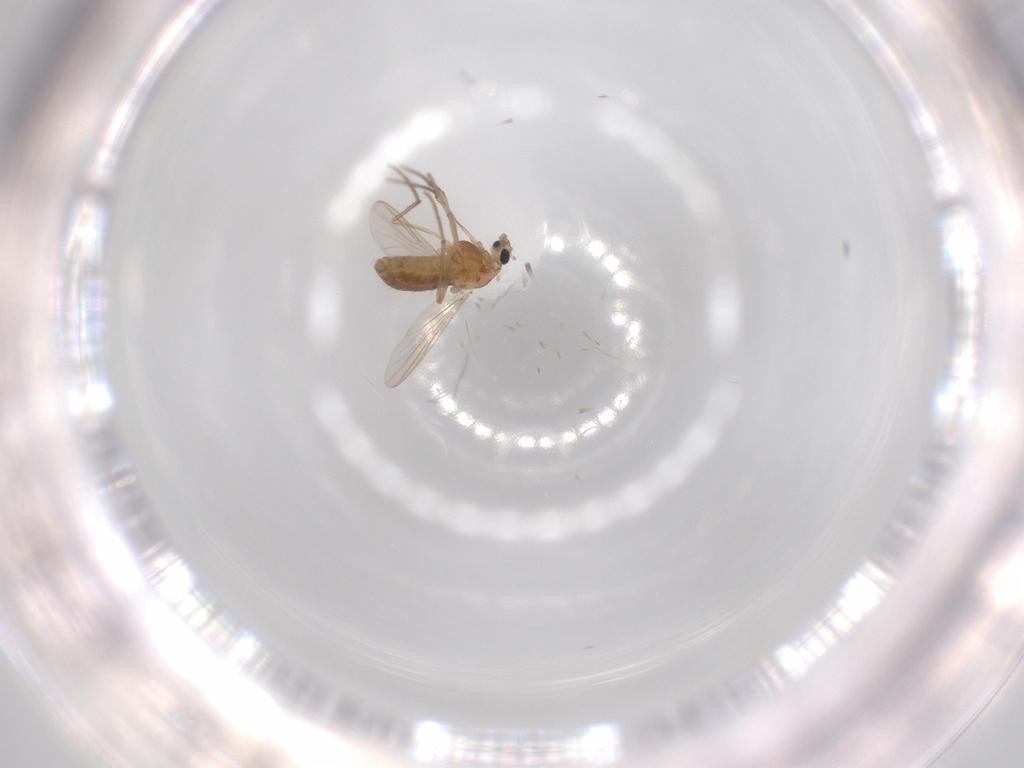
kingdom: Animalia
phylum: Arthropoda
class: Insecta
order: Diptera
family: Chironomidae
